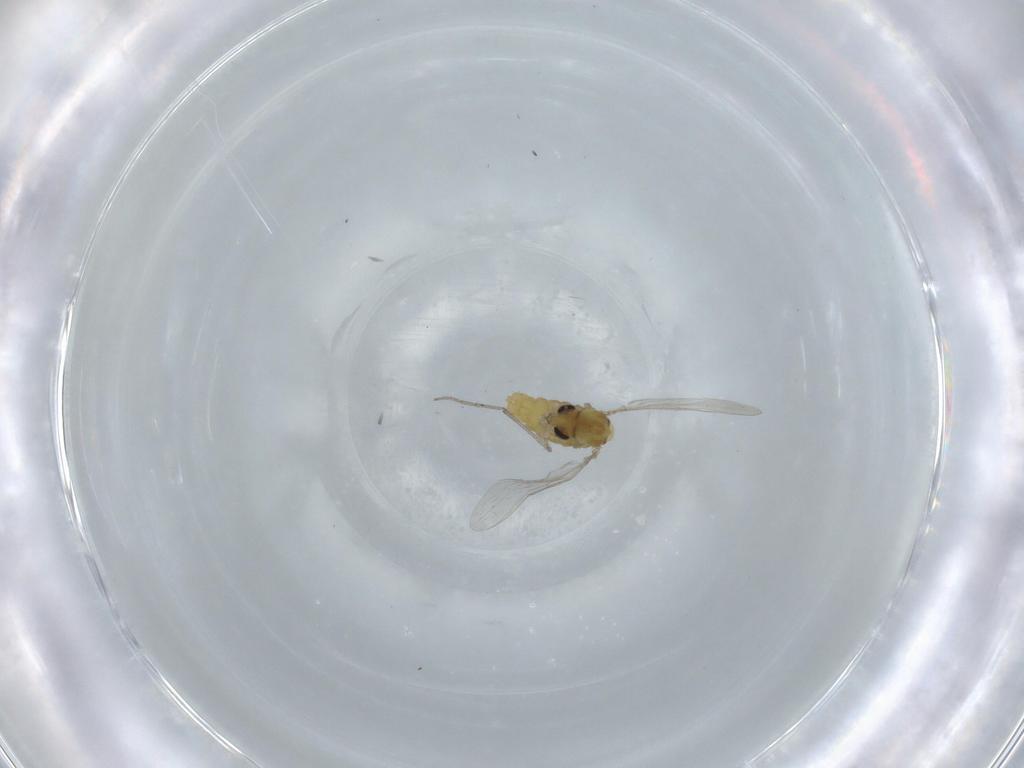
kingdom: Animalia
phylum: Arthropoda
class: Insecta
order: Diptera
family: Chironomidae
